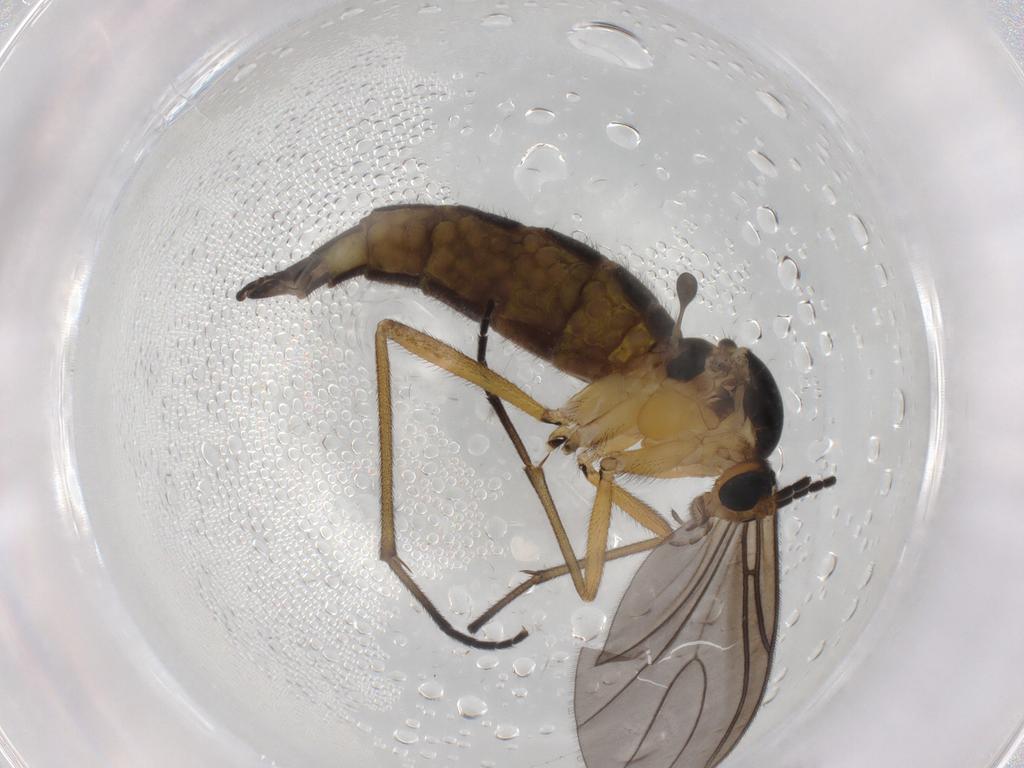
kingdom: Animalia
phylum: Arthropoda
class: Insecta
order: Diptera
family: Sciaridae
